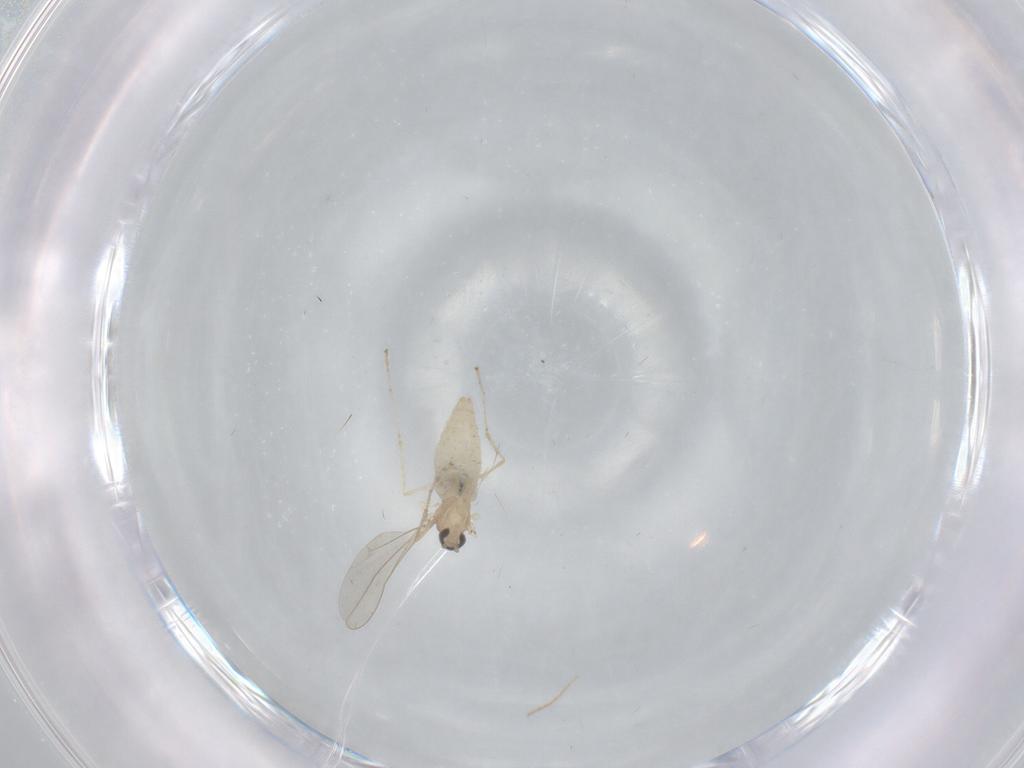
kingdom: Animalia
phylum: Arthropoda
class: Insecta
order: Diptera
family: Cecidomyiidae
